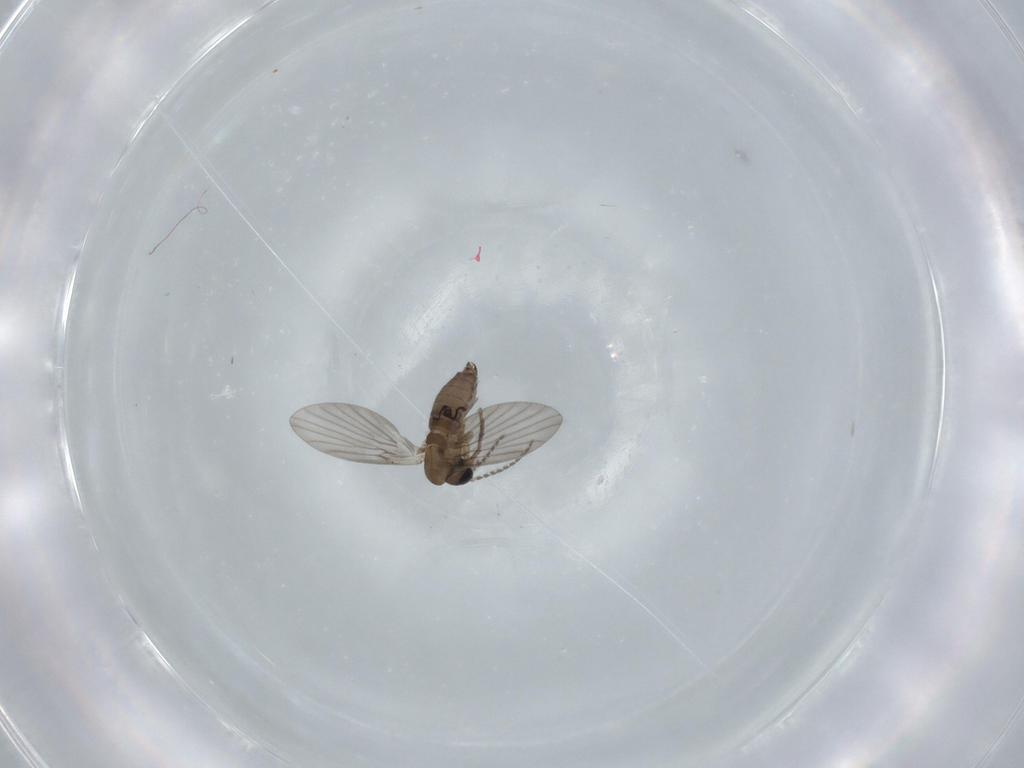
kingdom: Animalia
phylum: Arthropoda
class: Insecta
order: Diptera
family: Psychodidae
